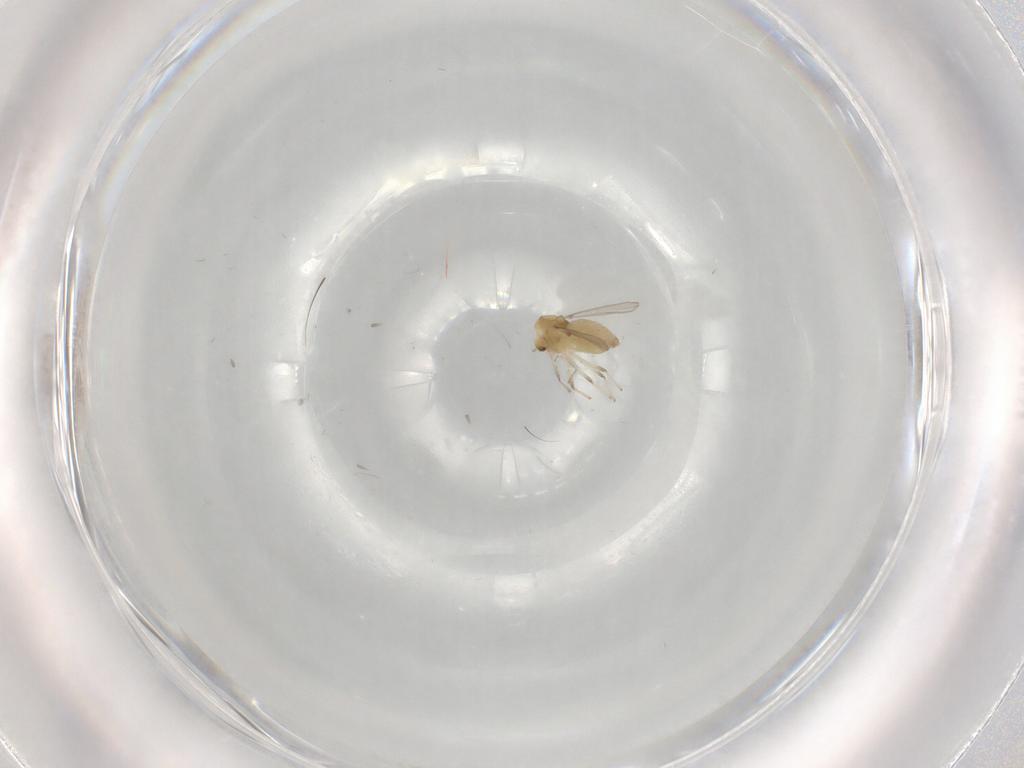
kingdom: Animalia
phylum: Arthropoda
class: Insecta
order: Diptera
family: Chironomidae
